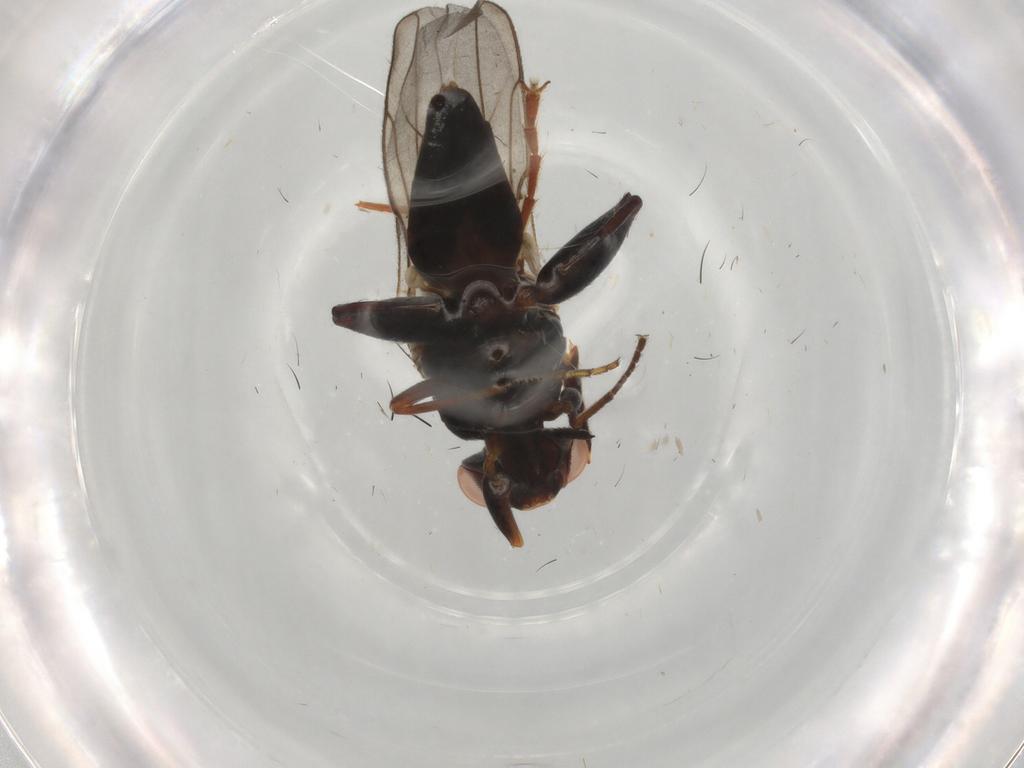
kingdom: Animalia
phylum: Arthropoda
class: Insecta
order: Diptera
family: Chloropidae
